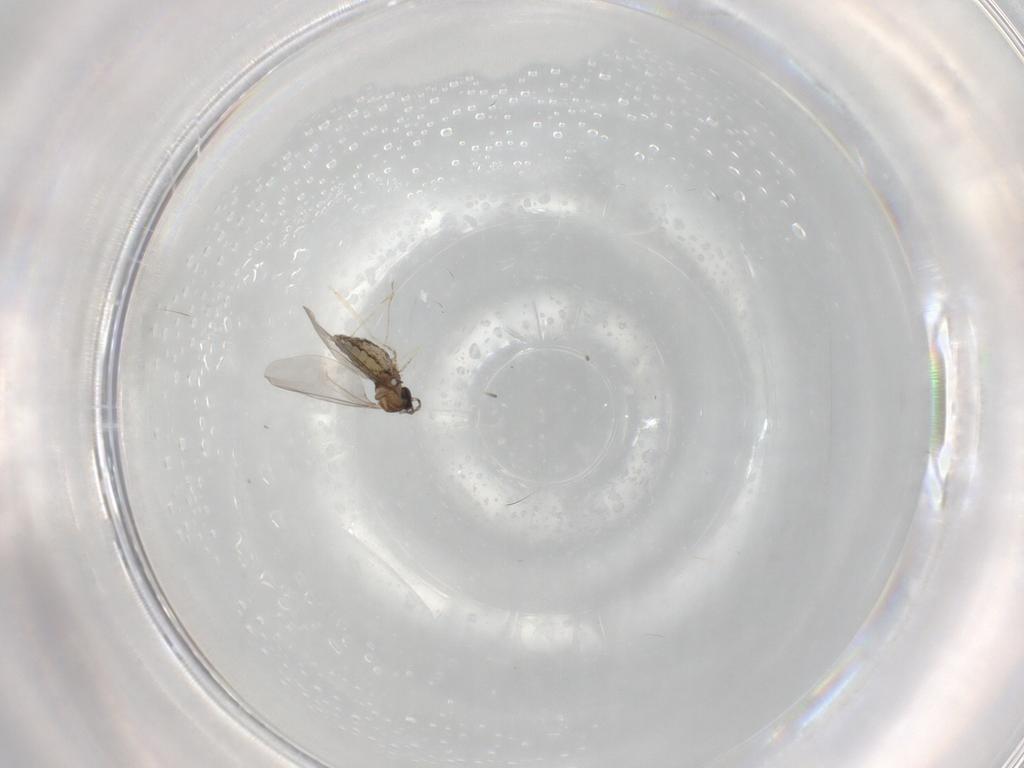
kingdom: Animalia
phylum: Arthropoda
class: Insecta
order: Diptera
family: Cecidomyiidae
